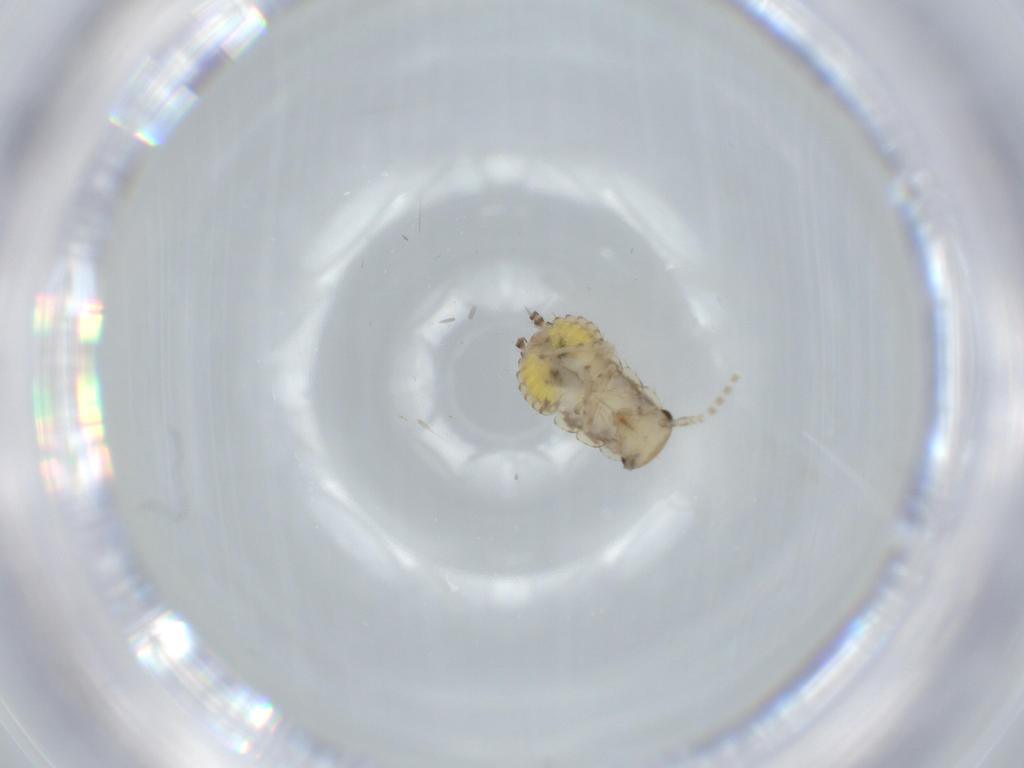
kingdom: Animalia
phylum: Arthropoda
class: Insecta
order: Blattodea
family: Ectobiidae
